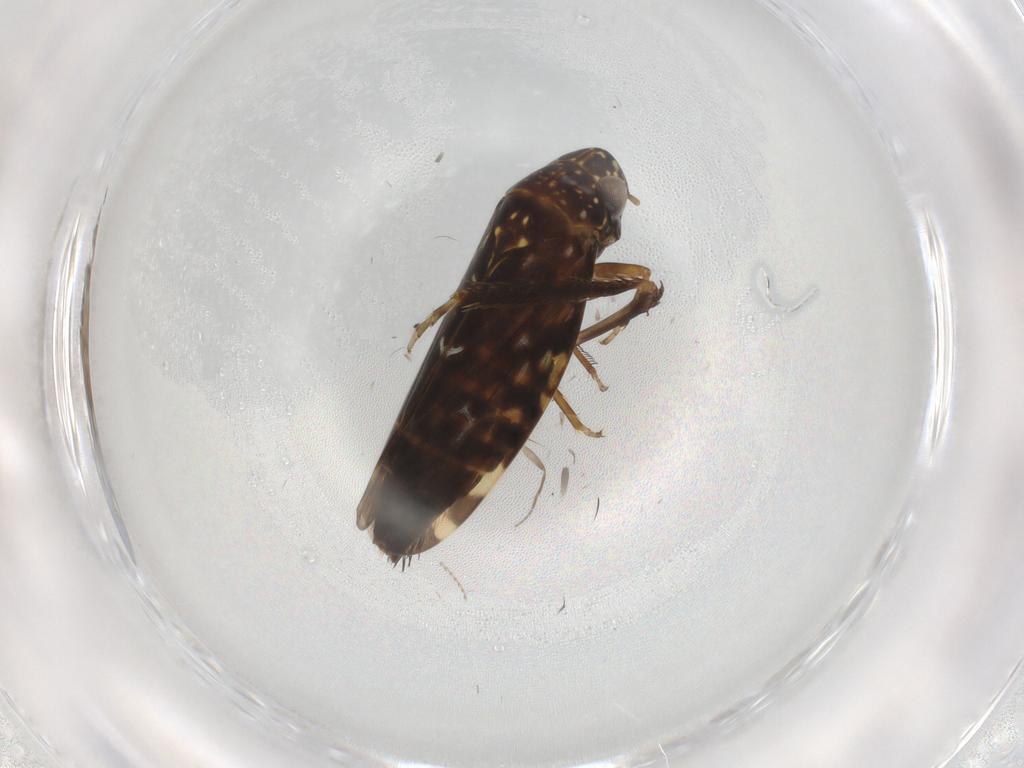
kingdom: Animalia
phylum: Arthropoda
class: Insecta
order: Hemiptera
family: Cicadellidae
